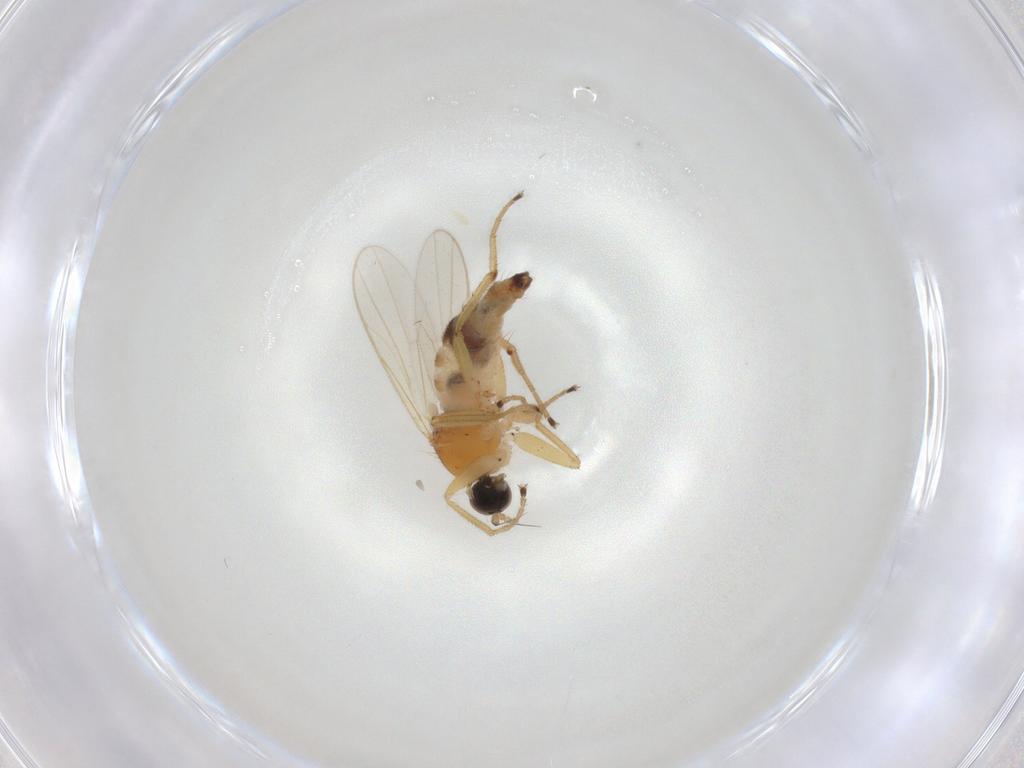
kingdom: Animalia
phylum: Arthropoda
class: Insecta
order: Diptera
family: Hybotidae
